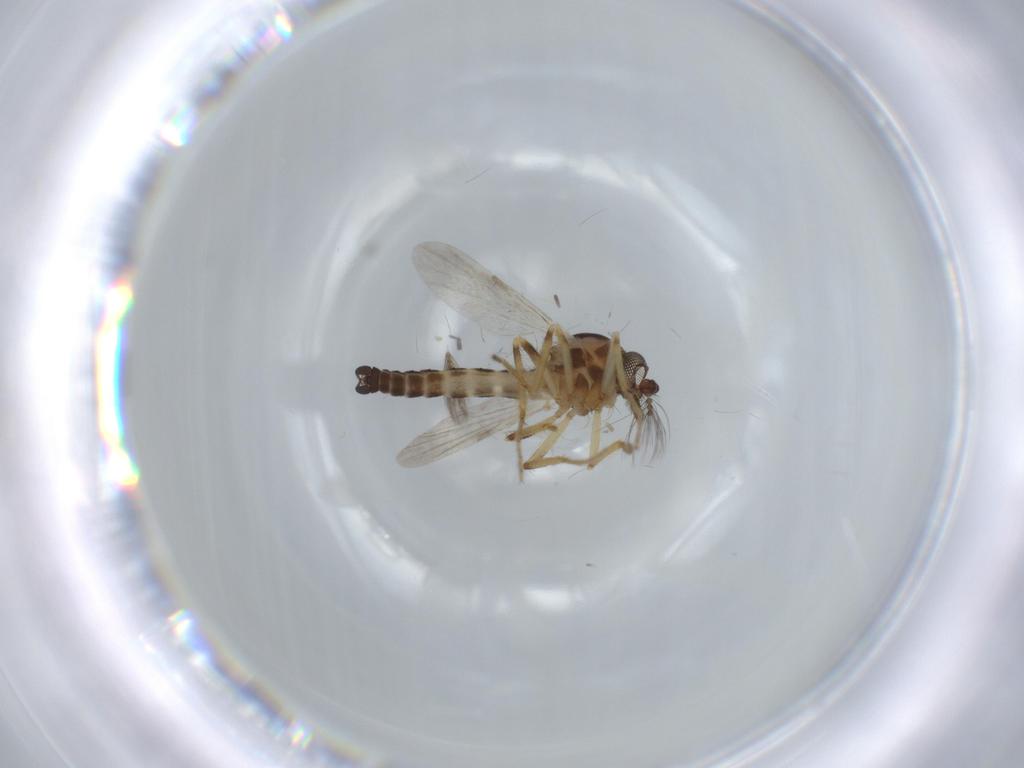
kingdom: Animalia
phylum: Arthropoda
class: Insecta
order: Diptera
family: Ceratopogonidae
